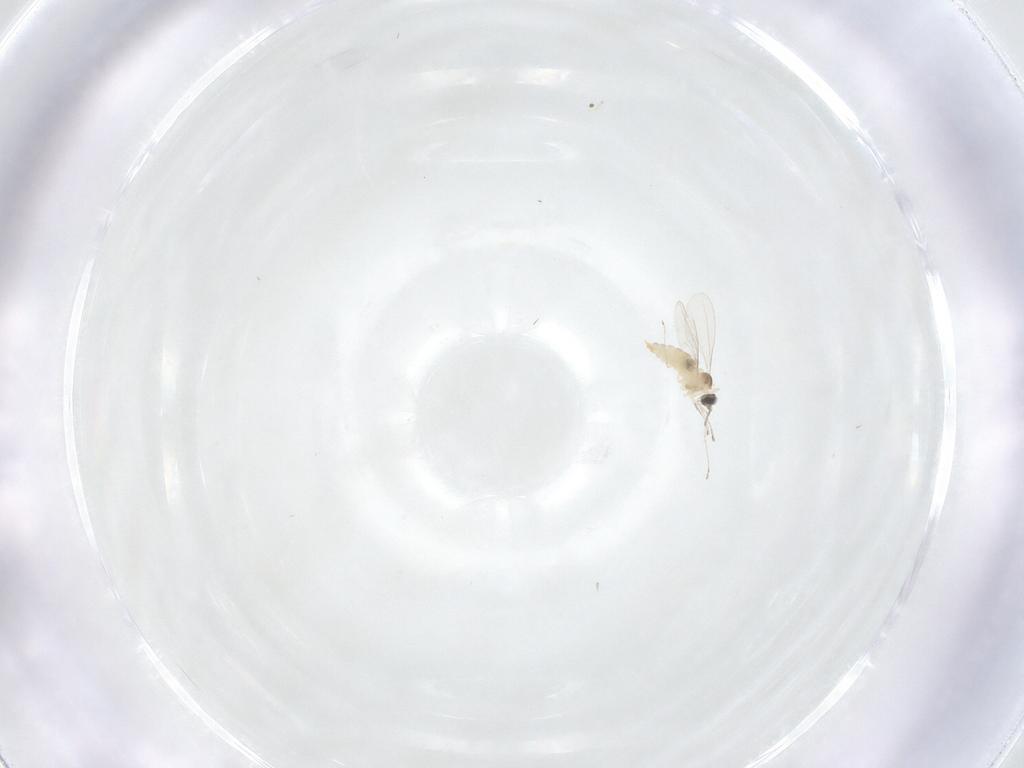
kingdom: Animalia
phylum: Arthropoda
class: Insecta
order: Diptera
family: Cecidomyiidae
